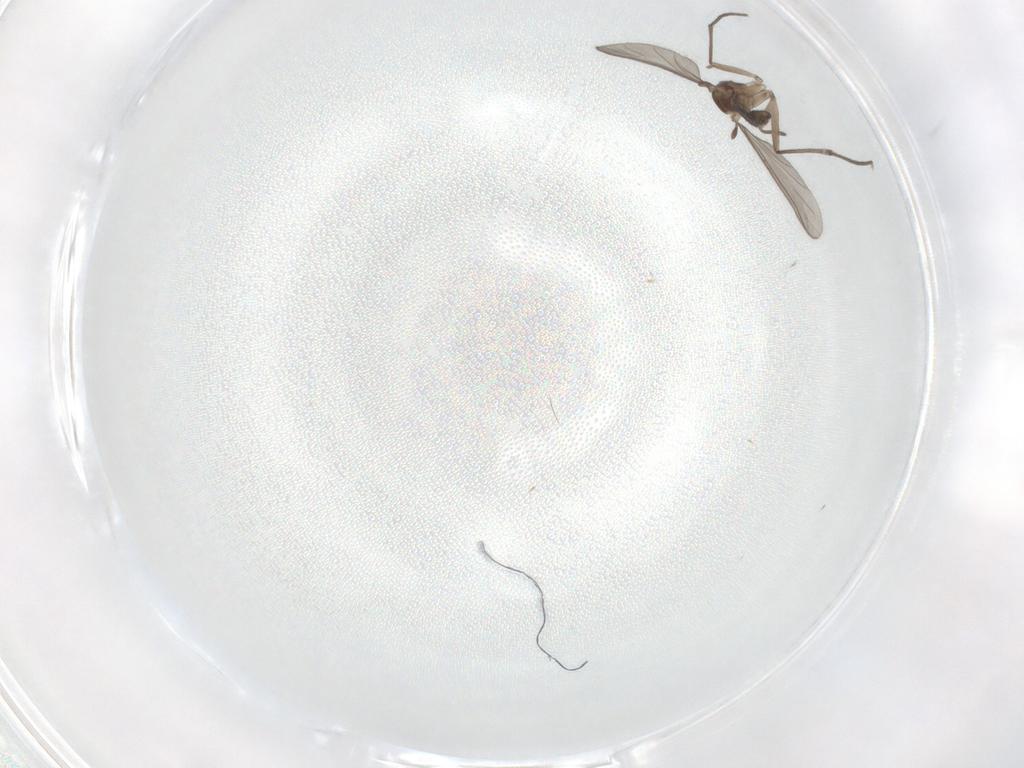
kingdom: Animalia
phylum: Arthropoda
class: Insecta
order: Diptera
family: Sciaridae
